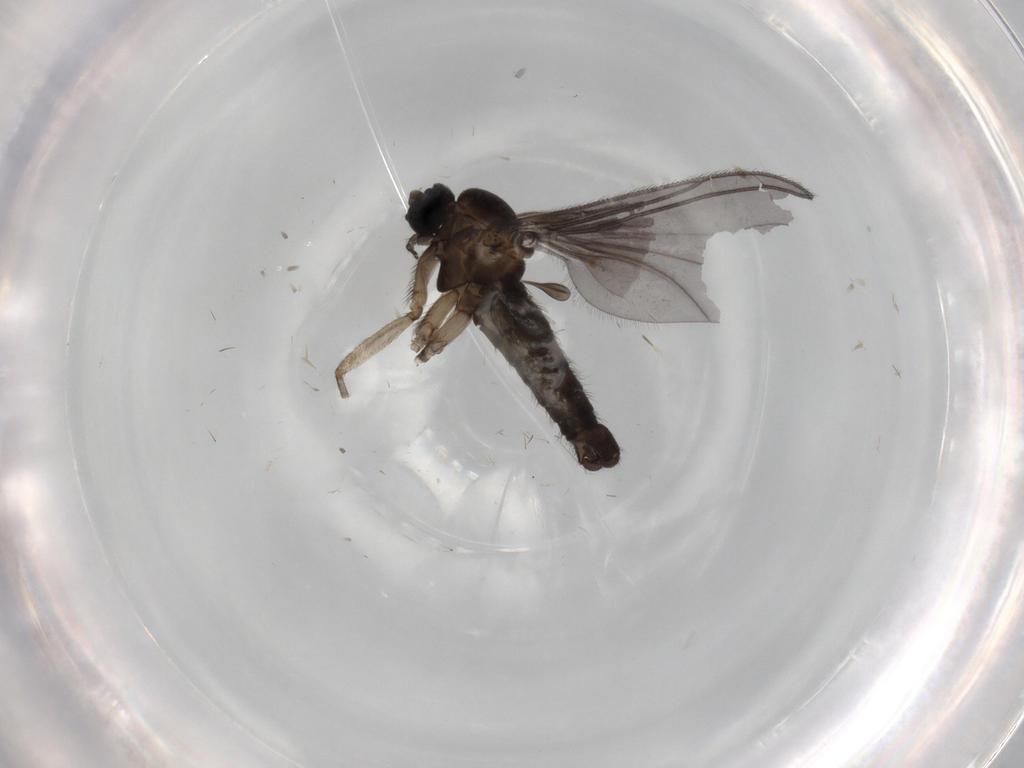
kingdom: Animalia
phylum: Arthropoda
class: Insecta
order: Diptera
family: Sciaridae
